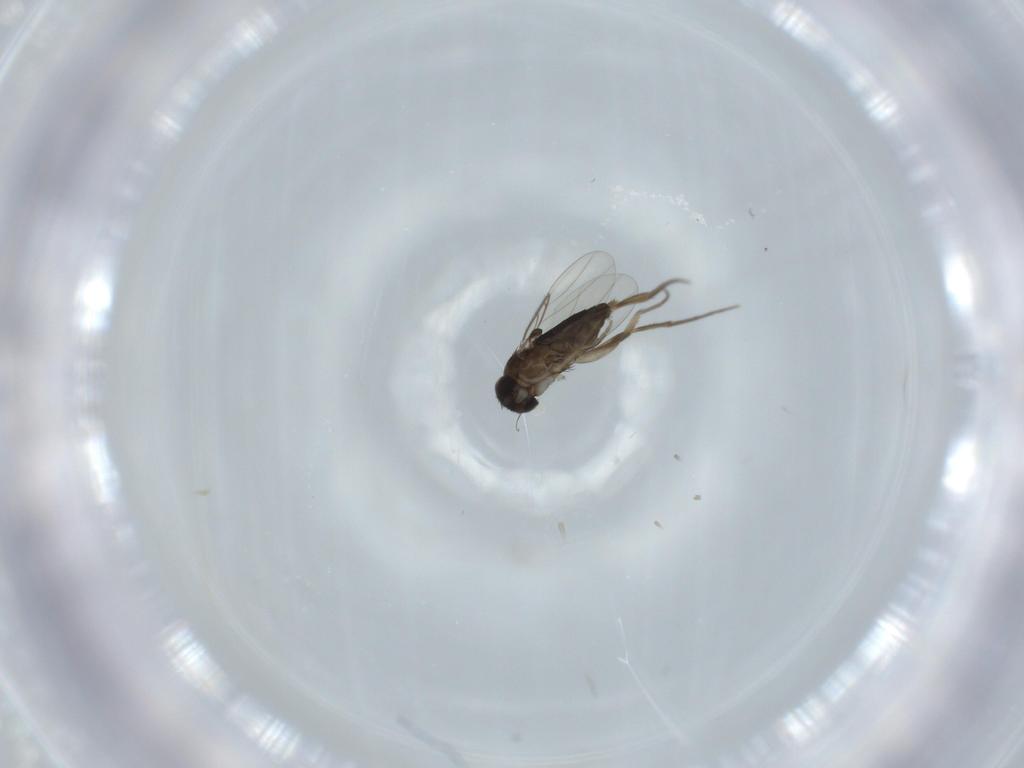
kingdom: Animalia
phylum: Arthropoda
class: Insecta
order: Diptera
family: Phoridae
